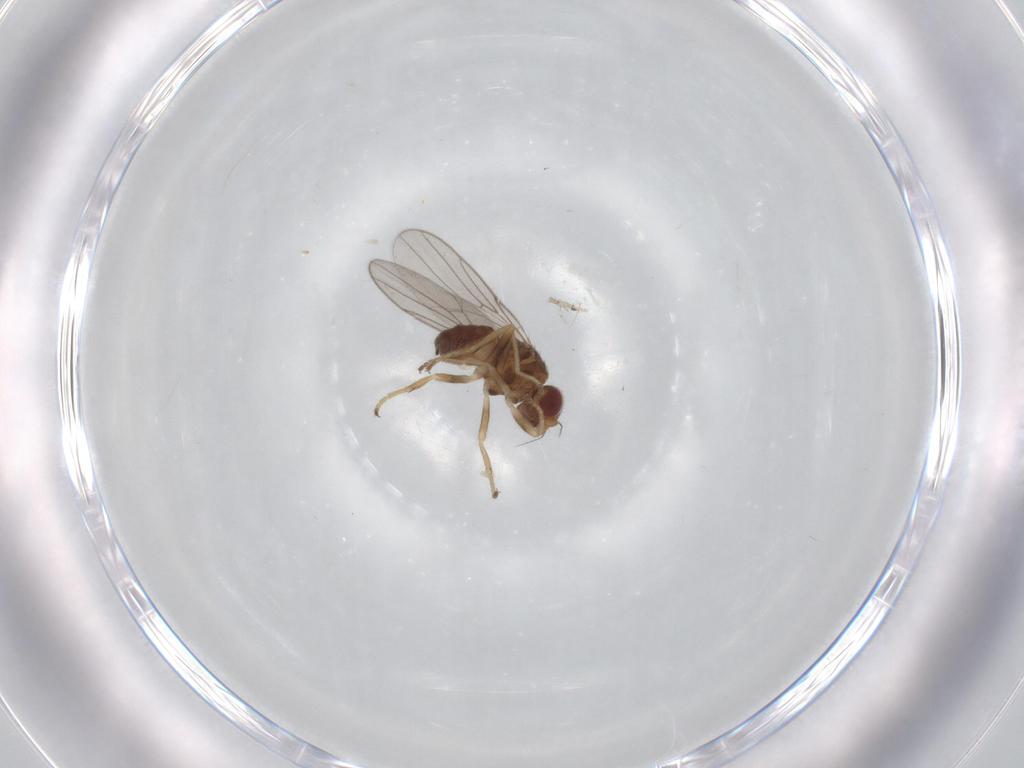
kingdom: Animalia
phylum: Arthropoda
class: Insecta
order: Diptera
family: Chloropidae
